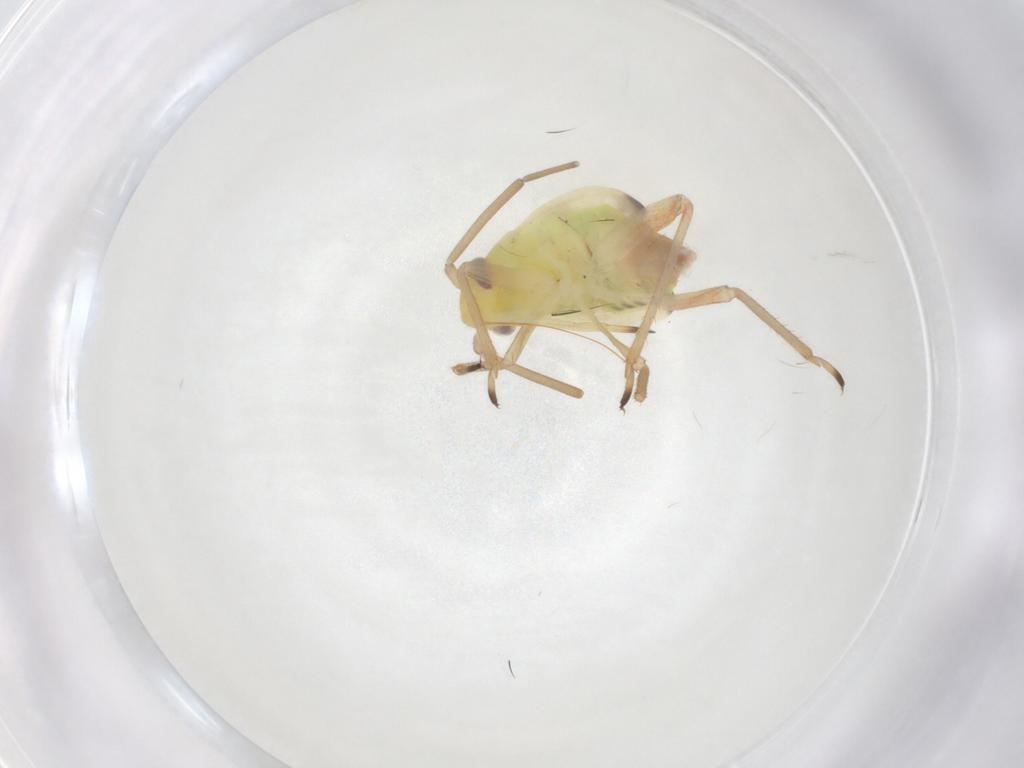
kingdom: Animalia
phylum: Arthropoda
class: Insecta
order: Hemiptera
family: Miridae
